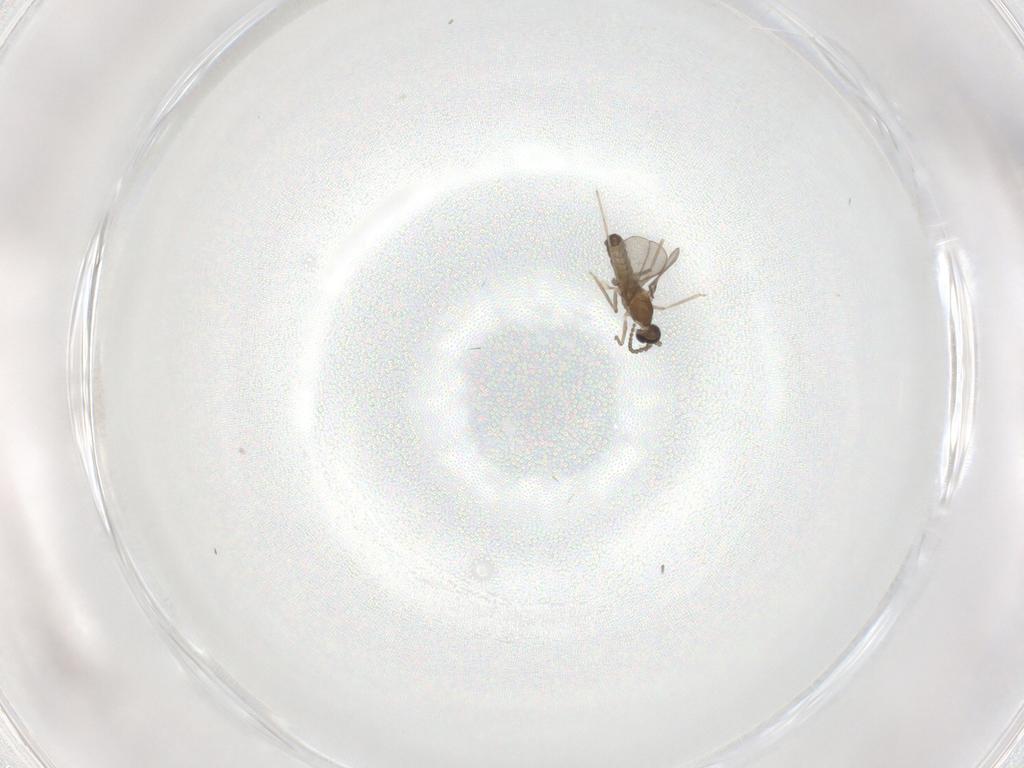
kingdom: Animalia
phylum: Arthropoda
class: Insecta
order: Diptera
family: Cecidomyiidae
